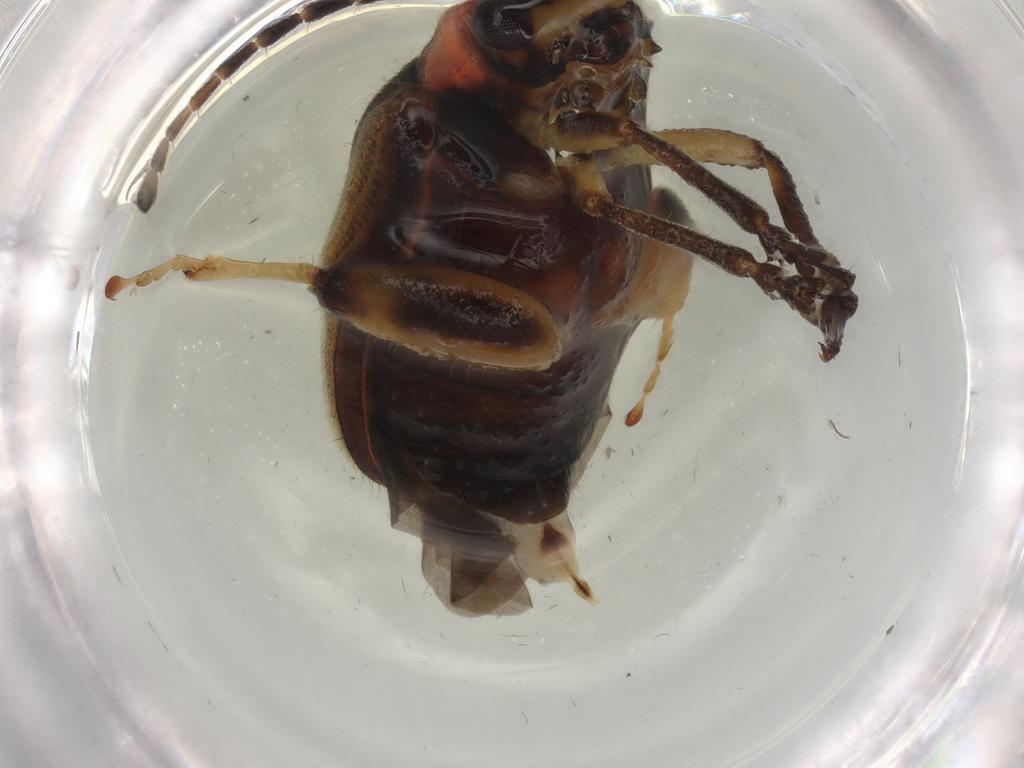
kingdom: Animalia
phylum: Arthropoda
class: Insecta
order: Coleoptera
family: Chrysomelidae
